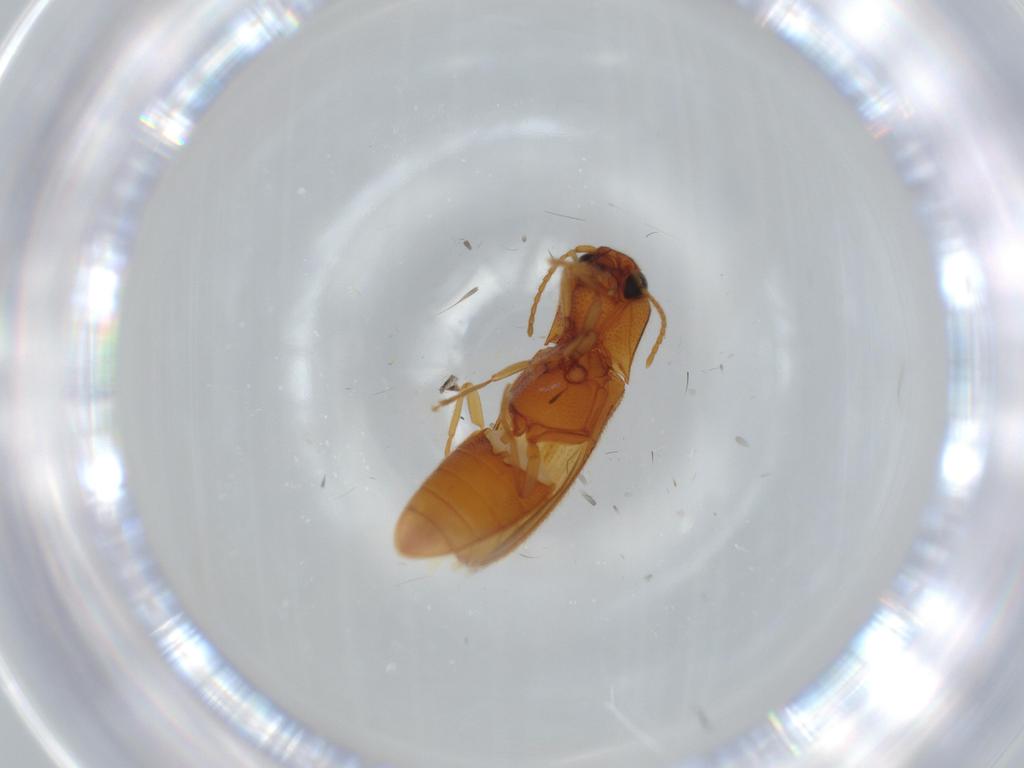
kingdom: Animalia
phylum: Arthropoda
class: Insecta
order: Coleoptera
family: Elateridae
